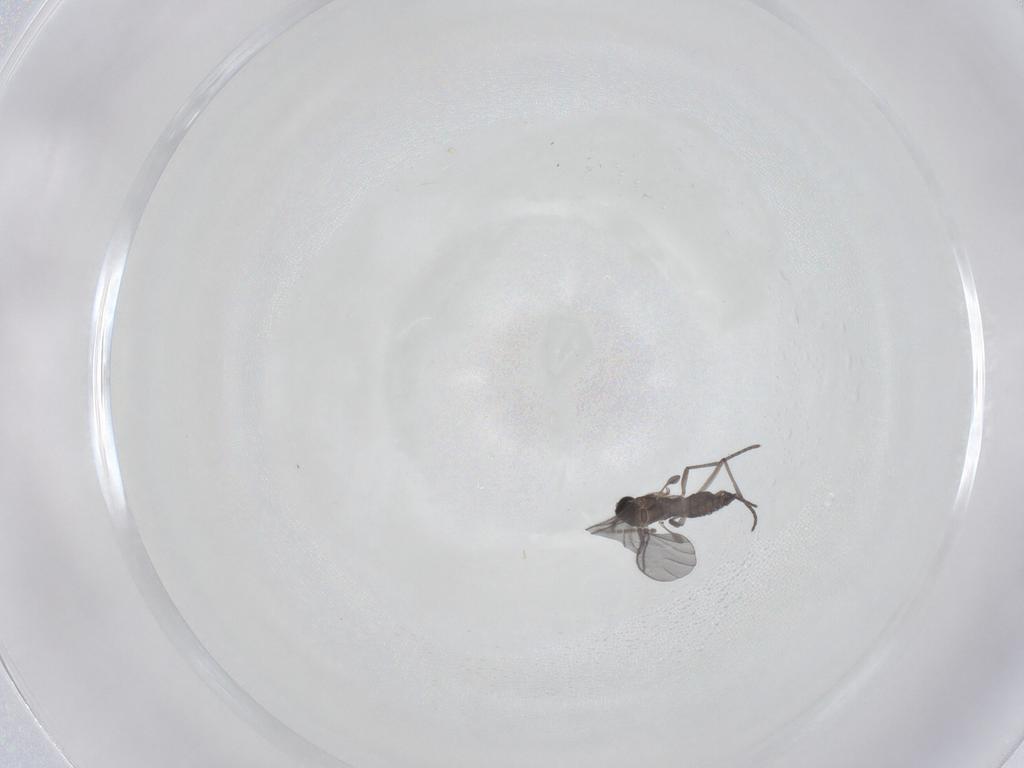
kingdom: Animalia
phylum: Arthropoda
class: Insecta
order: Diptera
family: Sciaridae
